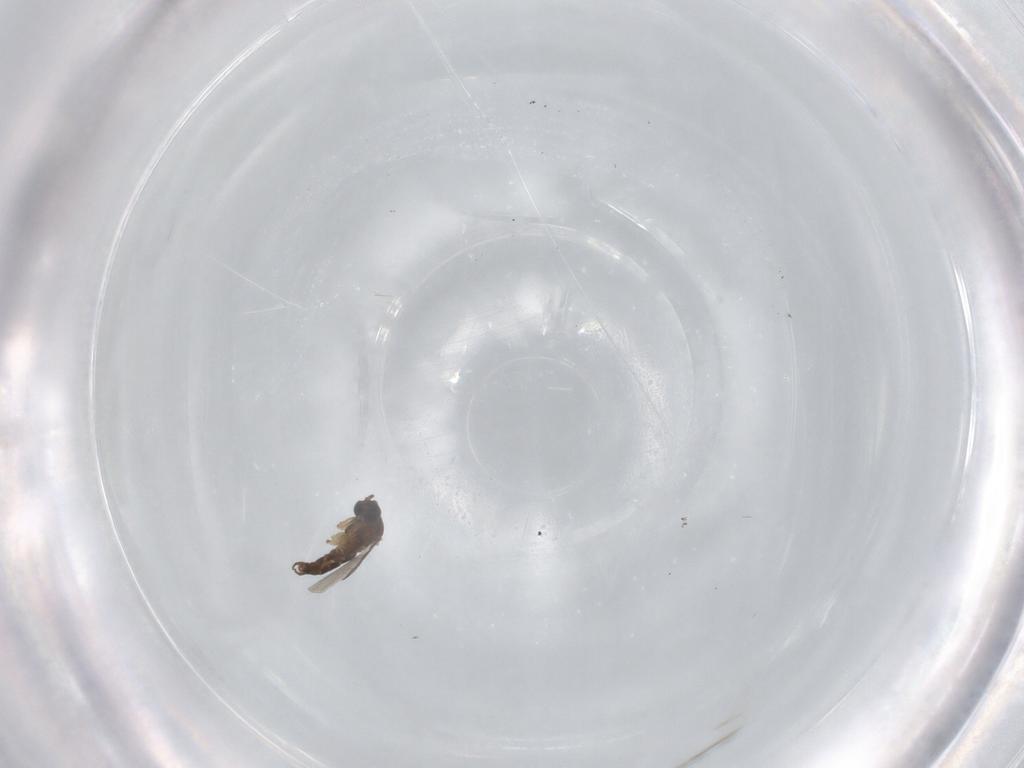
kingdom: Animalia
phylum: Arthropoda
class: Insecta
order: Diptera
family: Sciaridae
